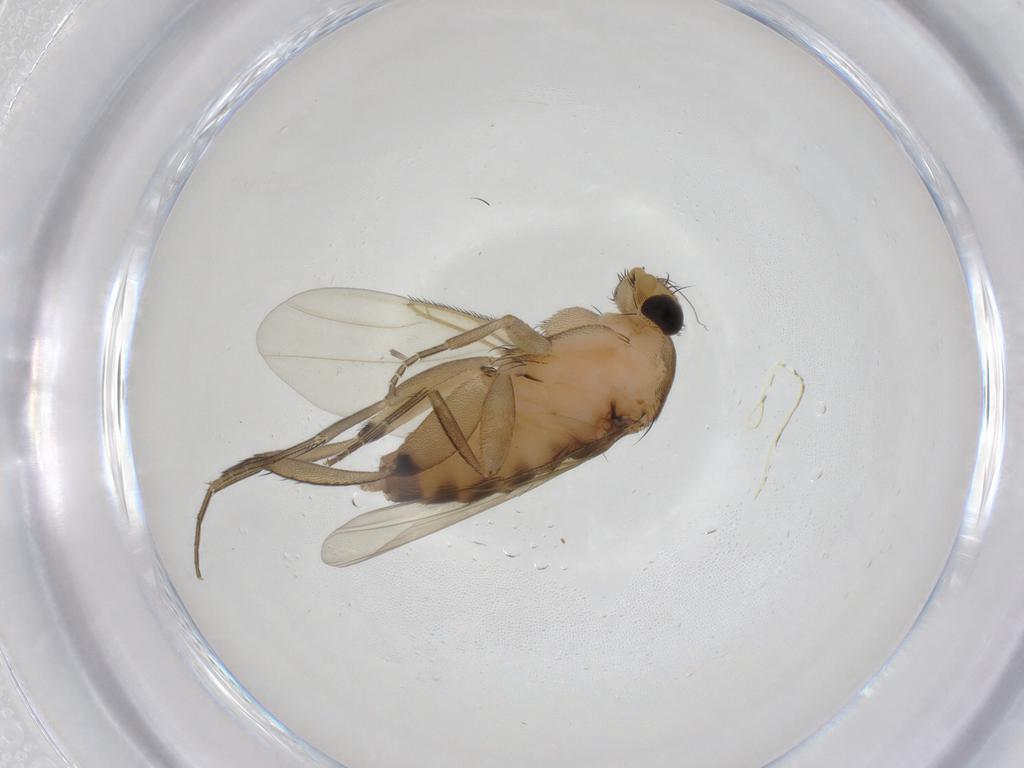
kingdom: Animalia
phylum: Arthropoda
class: Insecta
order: Diptera
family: Phoridae
